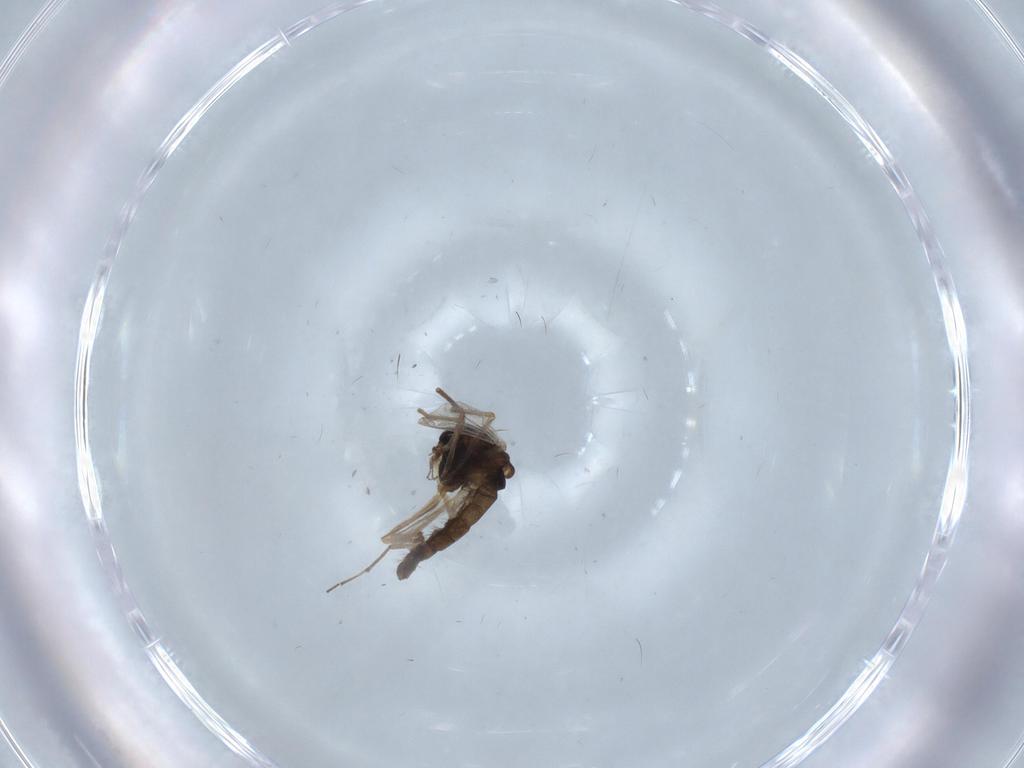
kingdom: Animalia
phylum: Arthropoda
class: Insecta
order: Diptera
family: Chironomidae
